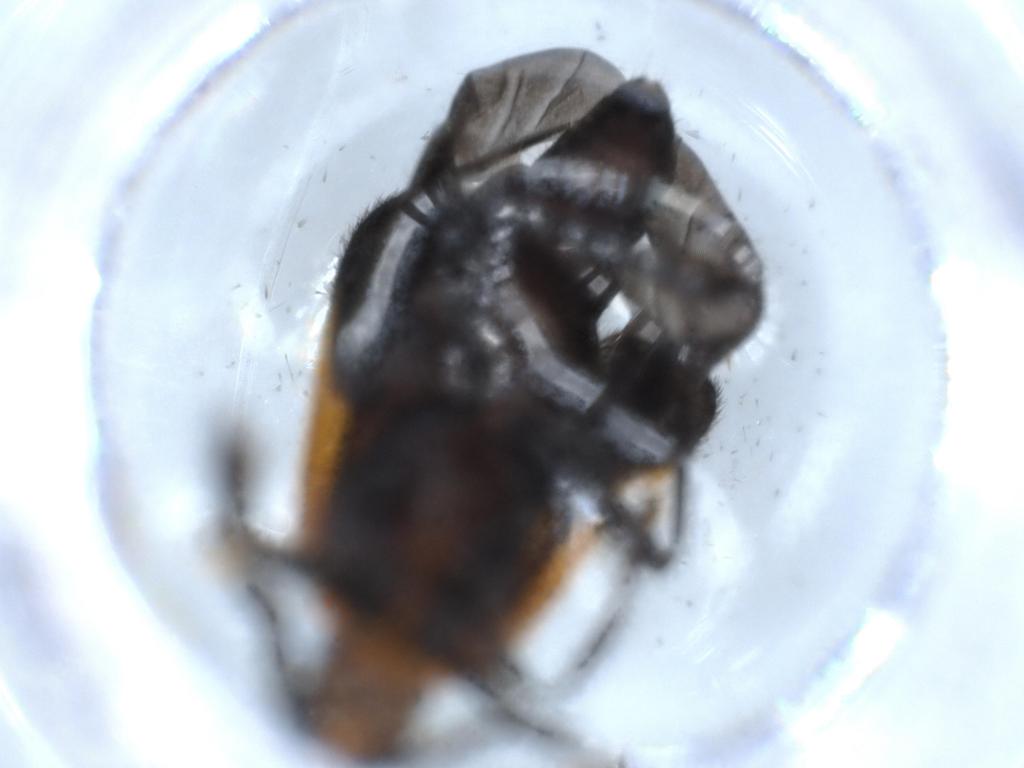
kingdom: Animalia
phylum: Arthropoda
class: Insecta
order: Coleoptera
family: Cleridae
